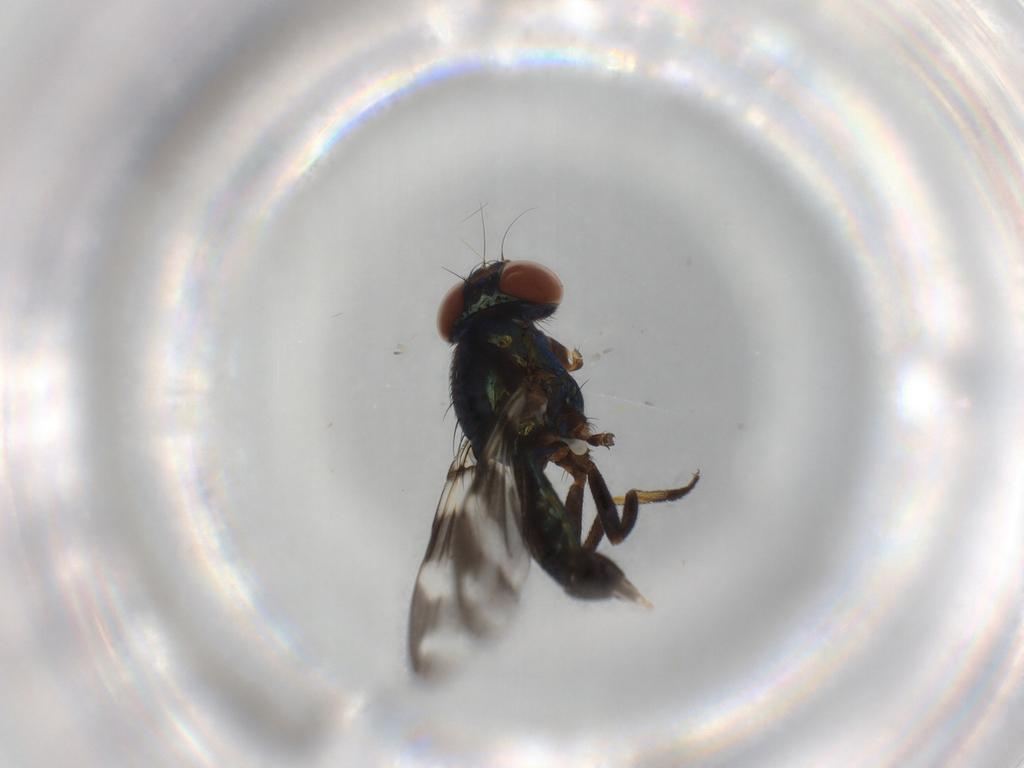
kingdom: Animalia
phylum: Arthropoda
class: Insecta
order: Diptera
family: Ulidiidae
